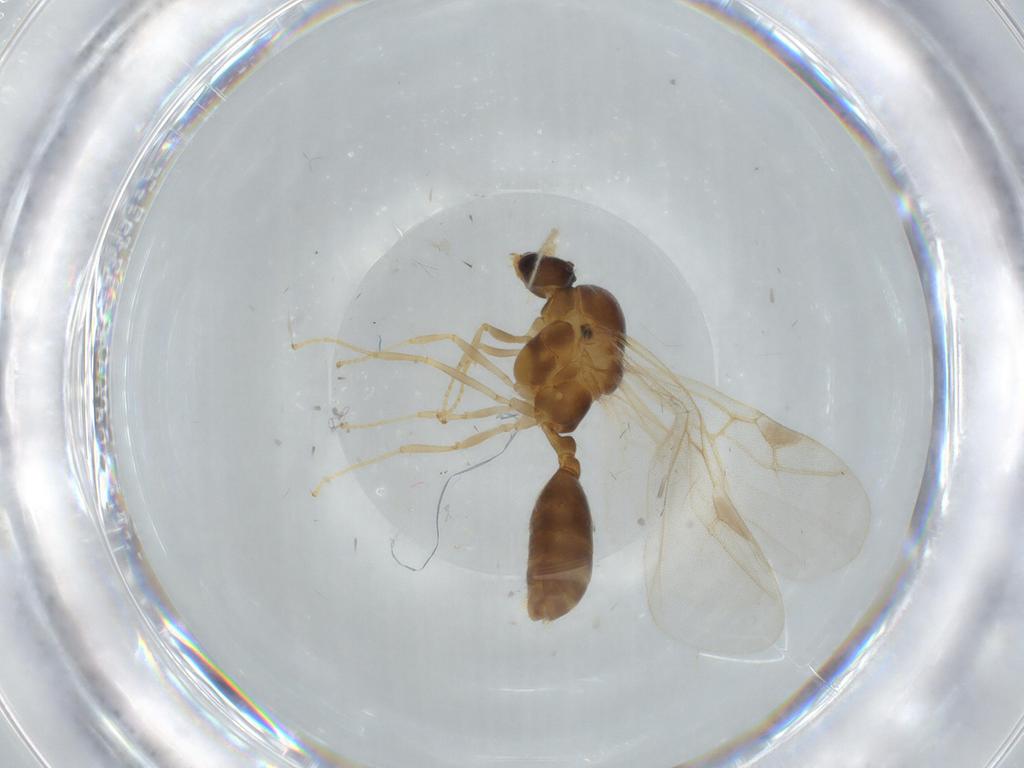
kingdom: Animalia
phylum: Arthropoda
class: Insecta
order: Hymenoptera
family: Formicidae
